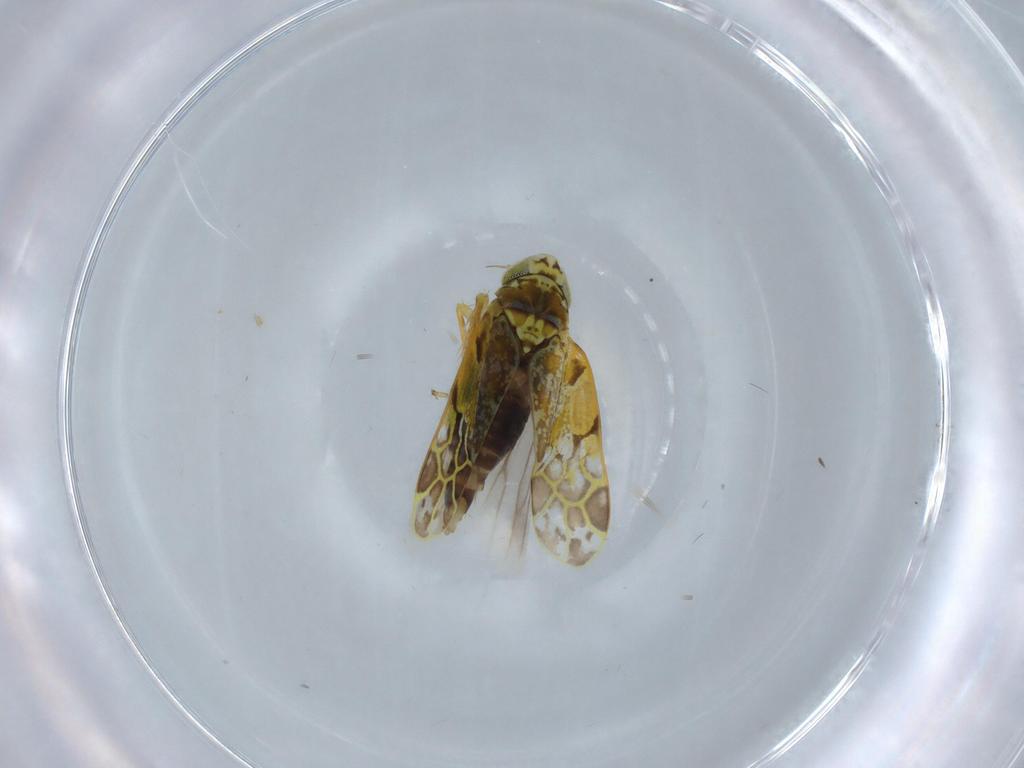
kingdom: Animalia
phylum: Arthropoda
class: Insecta
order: Hemiptera
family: Cicadellidae
